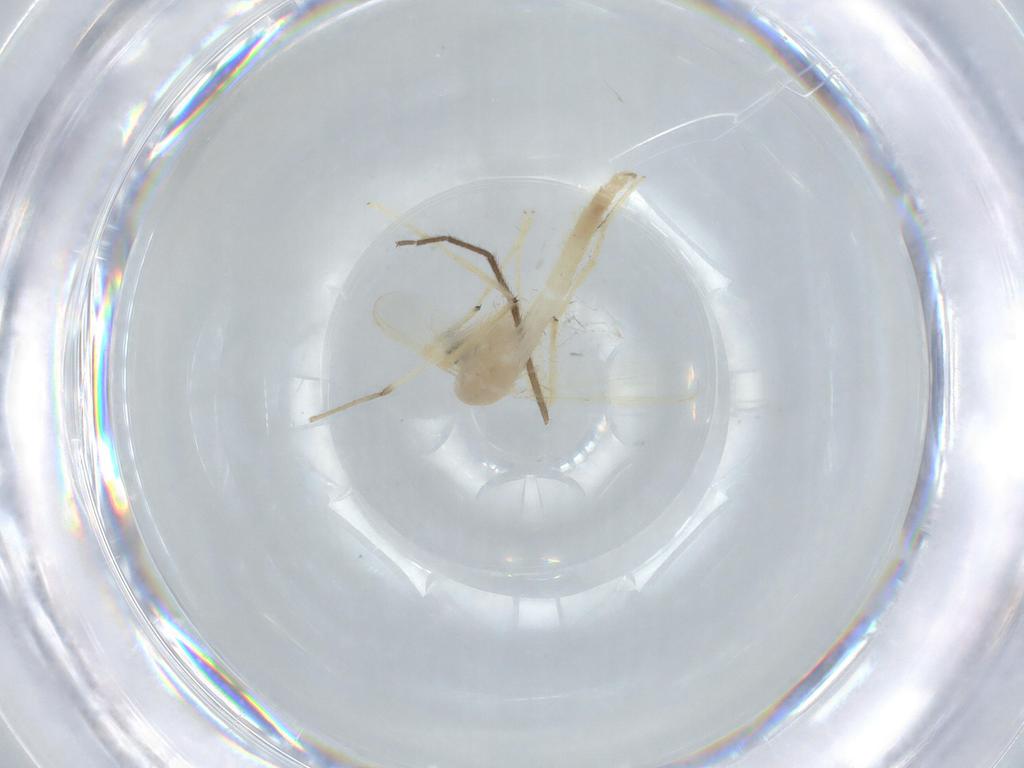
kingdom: Animalia
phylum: Arthropoda
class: Insecta
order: Diptera
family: Chironomidae
